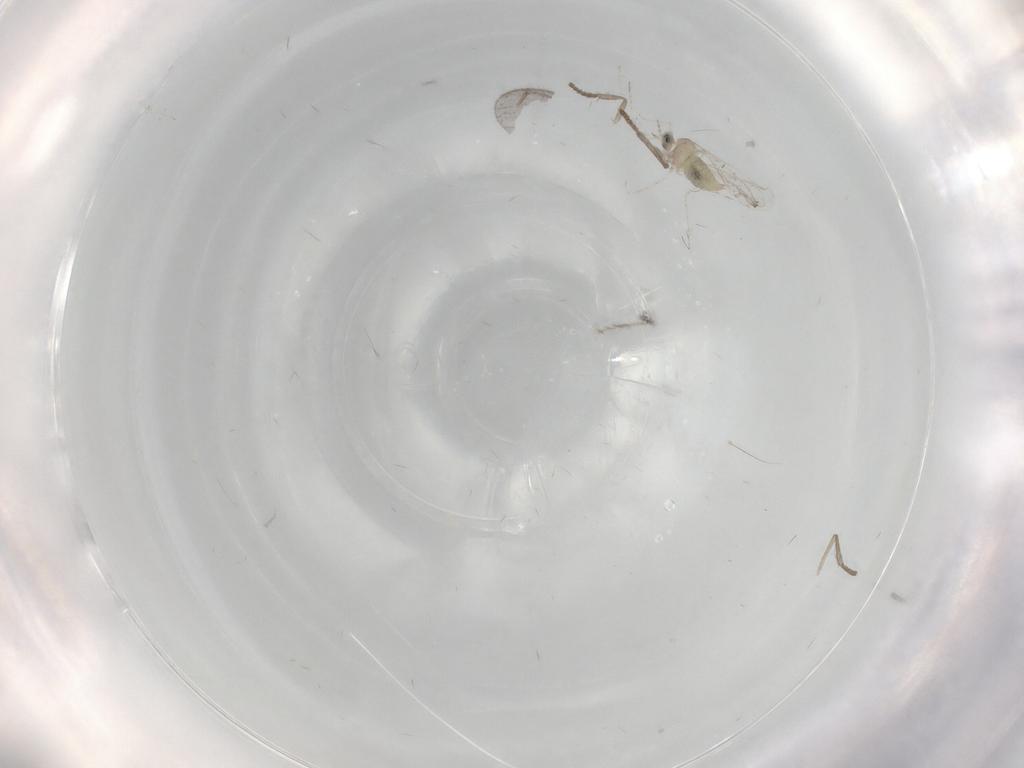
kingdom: Animalia
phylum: Arthropoda
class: Insecta
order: Diptera
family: Cecidomyiidae
